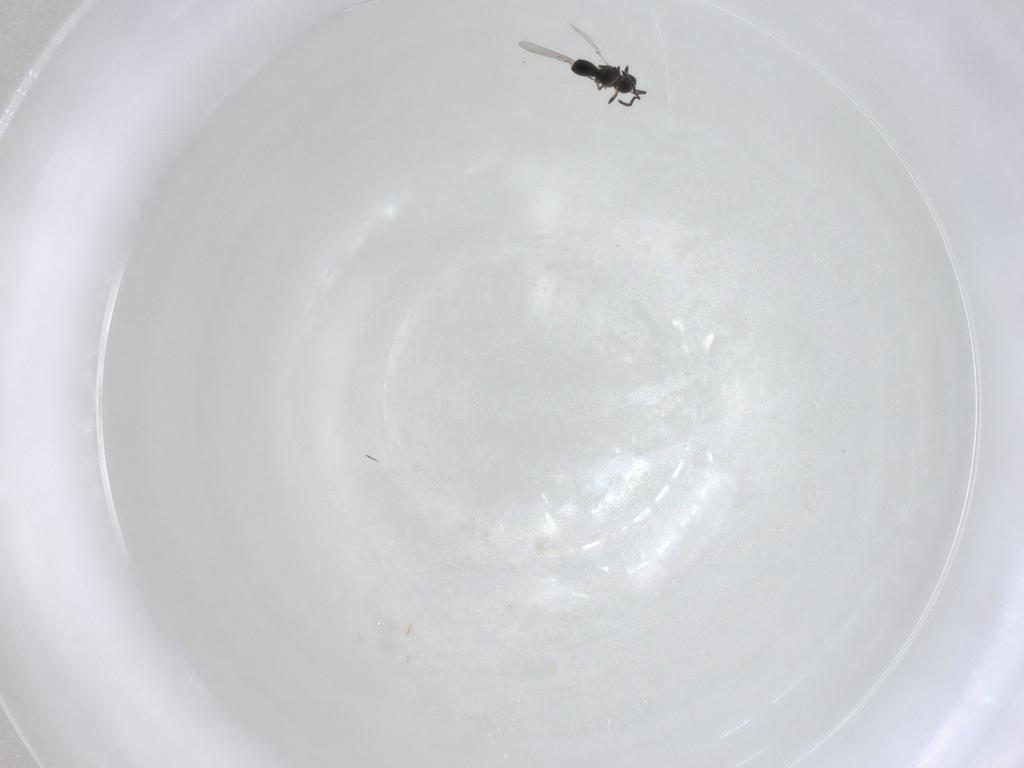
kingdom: Animalia
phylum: Arthropoda
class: Insecta
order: Hymenoptera
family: Scelionidae
